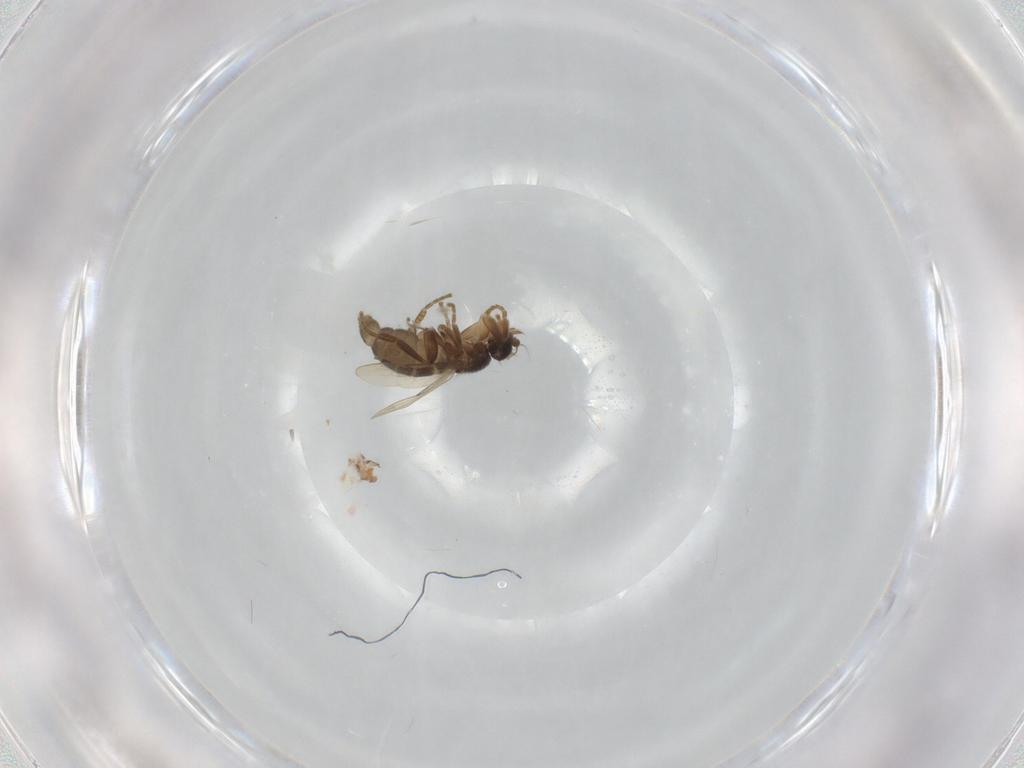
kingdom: Animalia
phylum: Arthropoda
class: Insecta
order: Diptera
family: Phoridae
